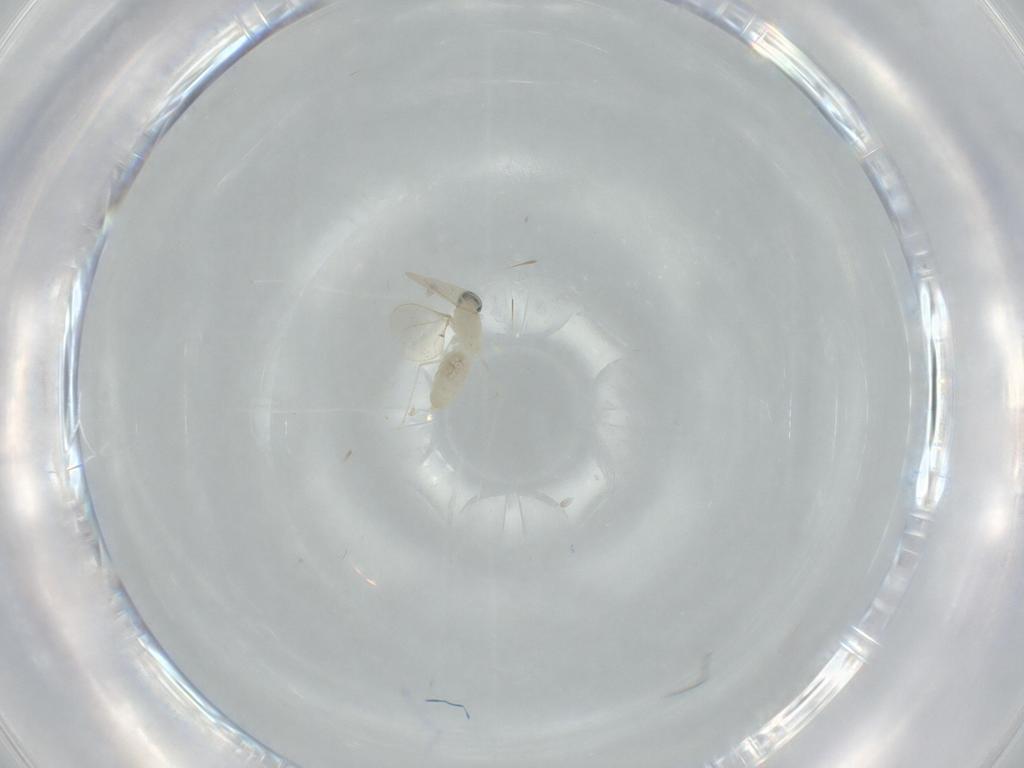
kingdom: Animalia
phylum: Arthropoda
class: Insecta
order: Diptera
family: Cecidomyiidae
